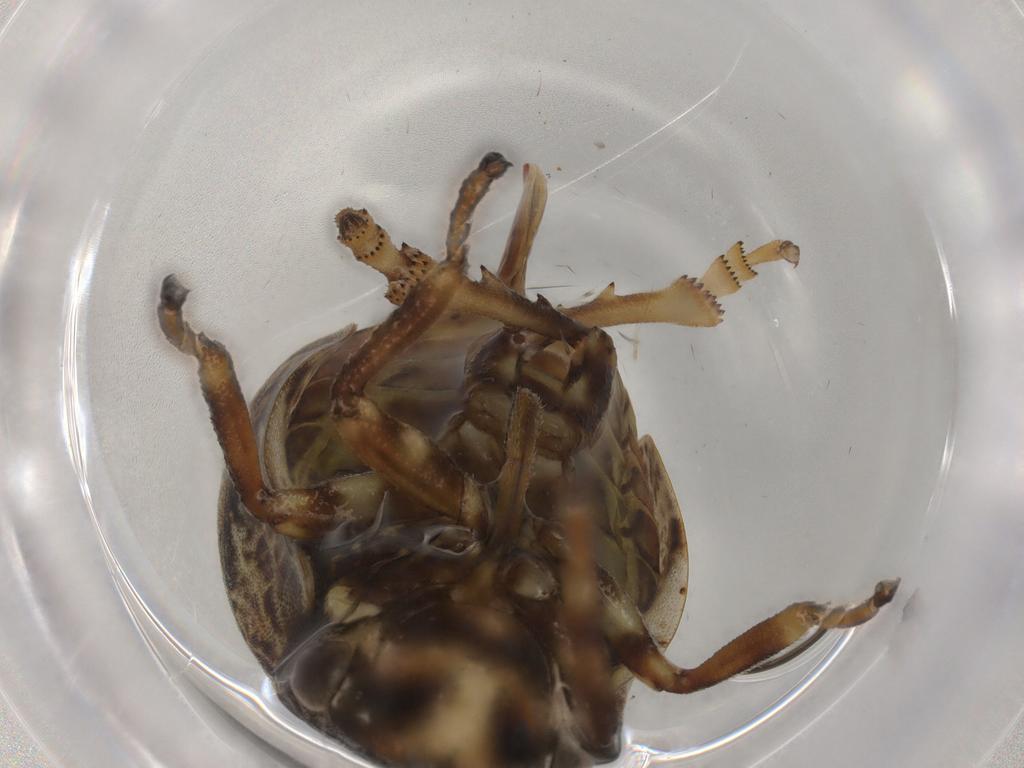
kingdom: Animalia
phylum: Arthropoda
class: Insecta
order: Hemiptera
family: Aphrophoridae
